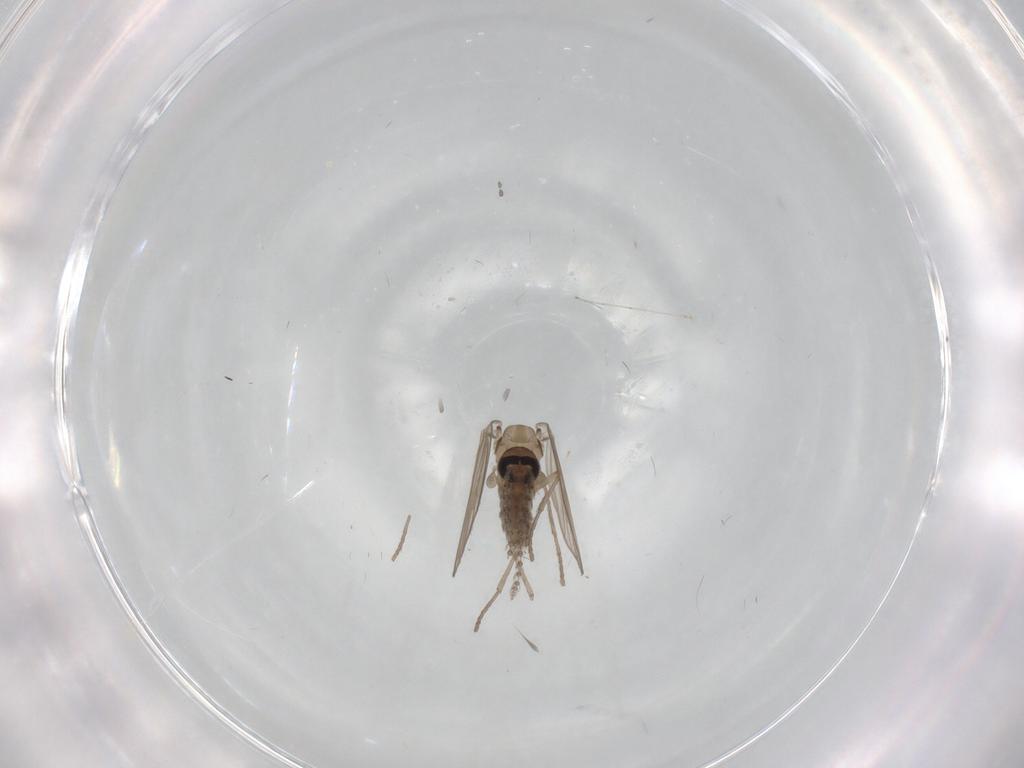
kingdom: Animalia
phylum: Arthropoda
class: Insecta
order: Diptera
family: Psychodidae
